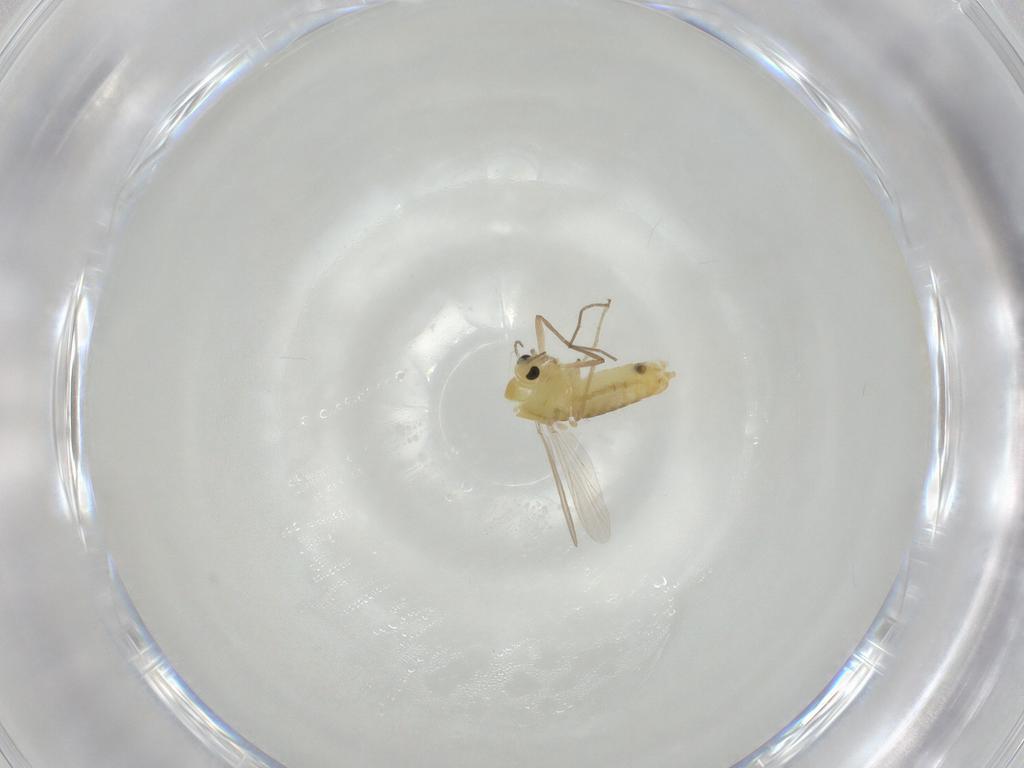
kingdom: Animalia
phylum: Arthropoda
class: Insecta
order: Diptera
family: Chironomidae
